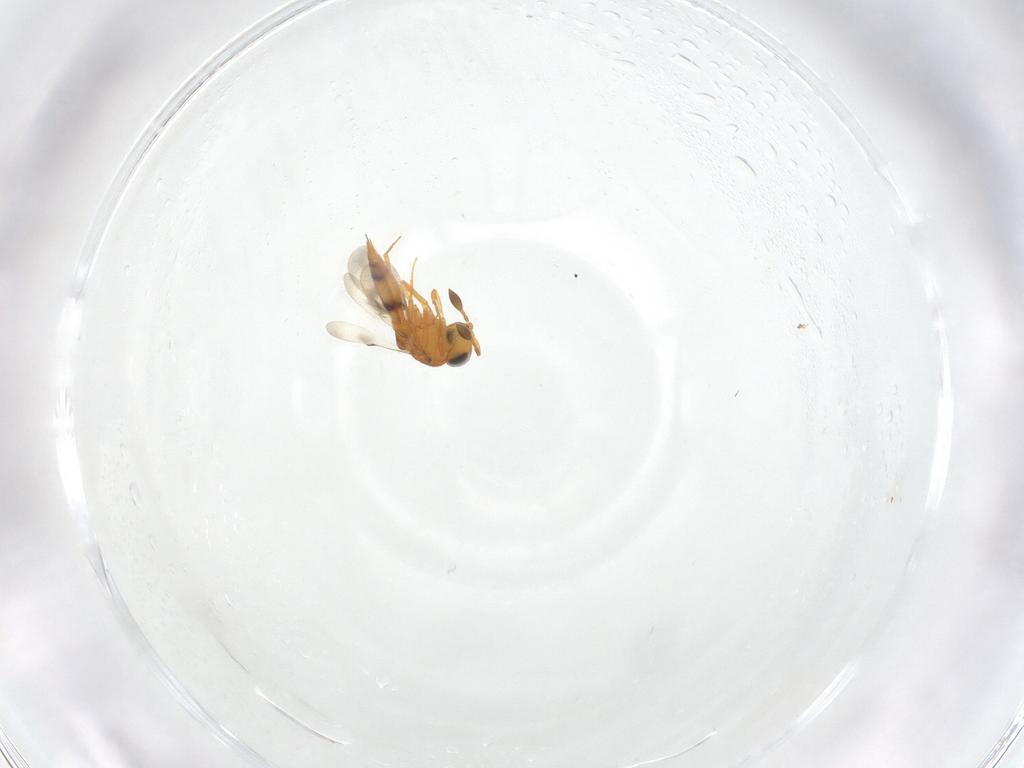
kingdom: Animalia
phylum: Arthropoda
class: Insecta
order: Hymenoptera
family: Scelionidae
